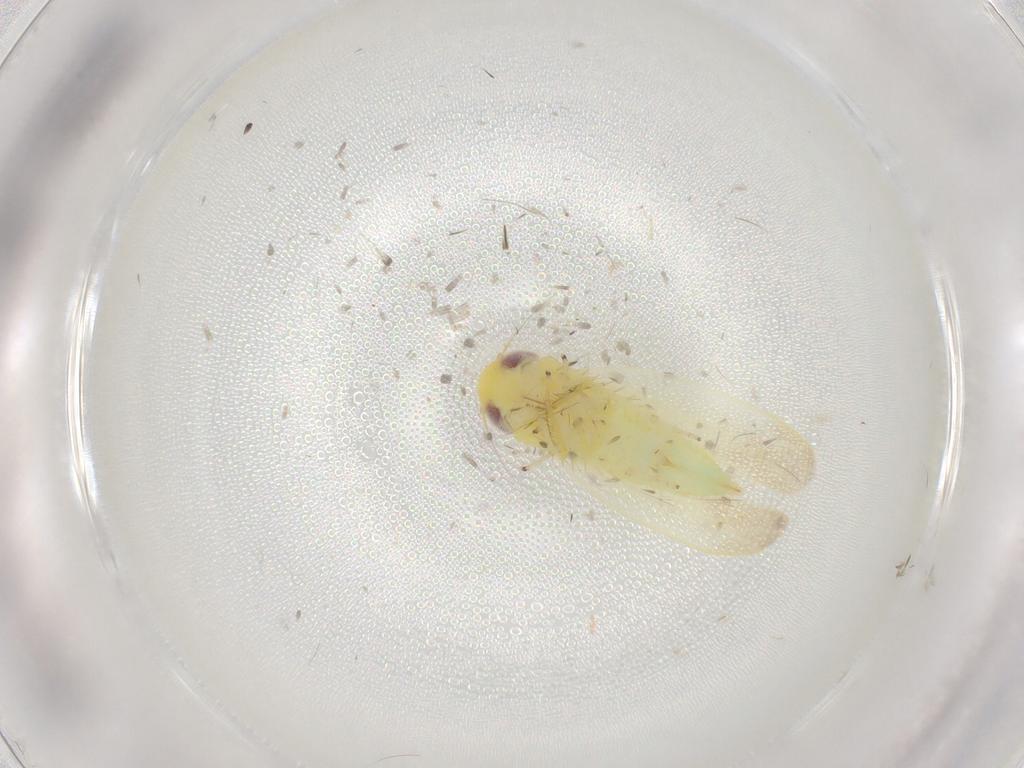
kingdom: Animalia
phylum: Arthropoda
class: Insecta
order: Hemiptera
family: Cicadellidae
